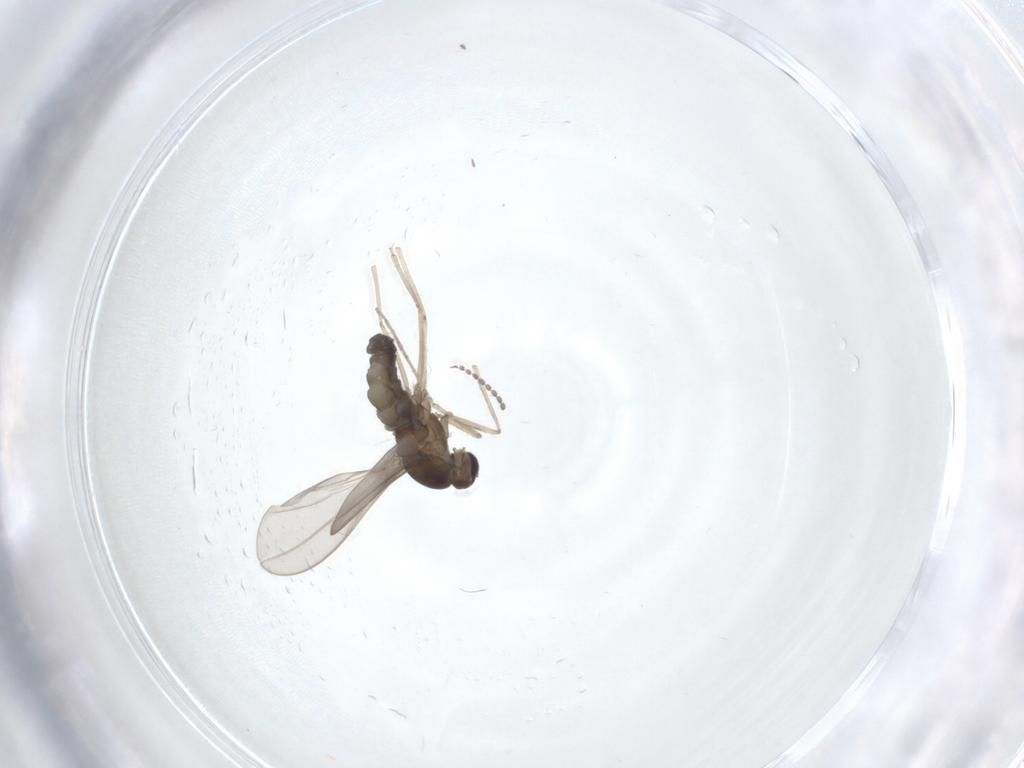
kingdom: Animalia
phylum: Arthropoda
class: Insecta
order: Diptera
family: Cecidomyiidae
